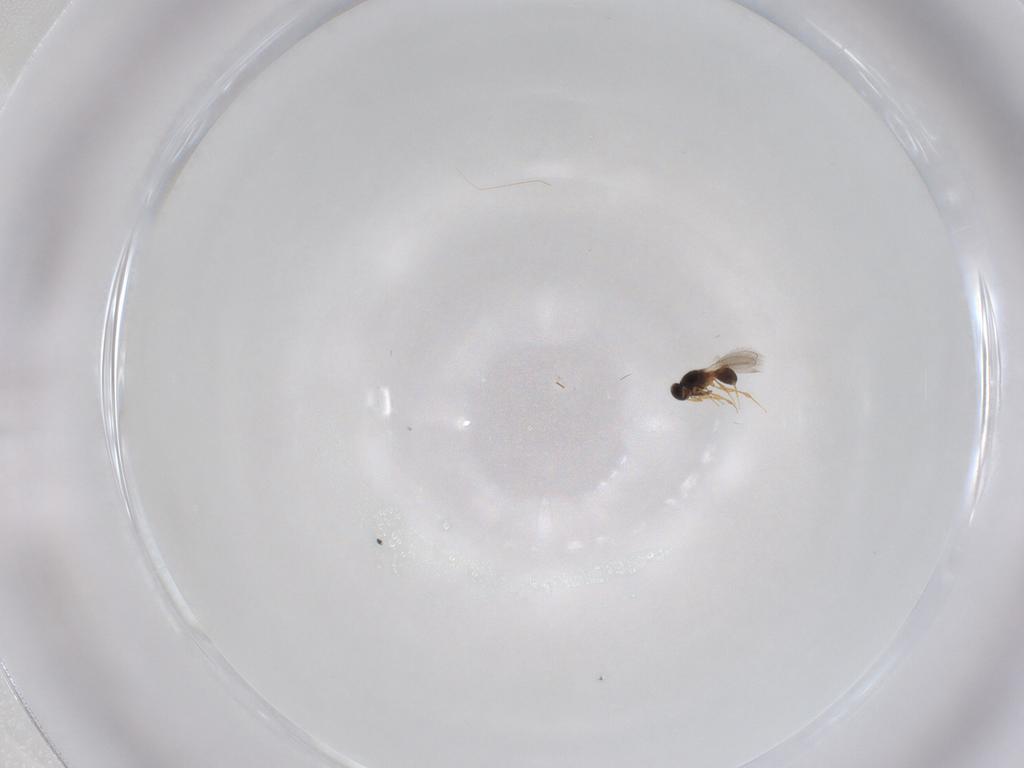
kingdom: Animalia
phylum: Arthropoda
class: Insecta
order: Hymenoptera
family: Platygastridae
